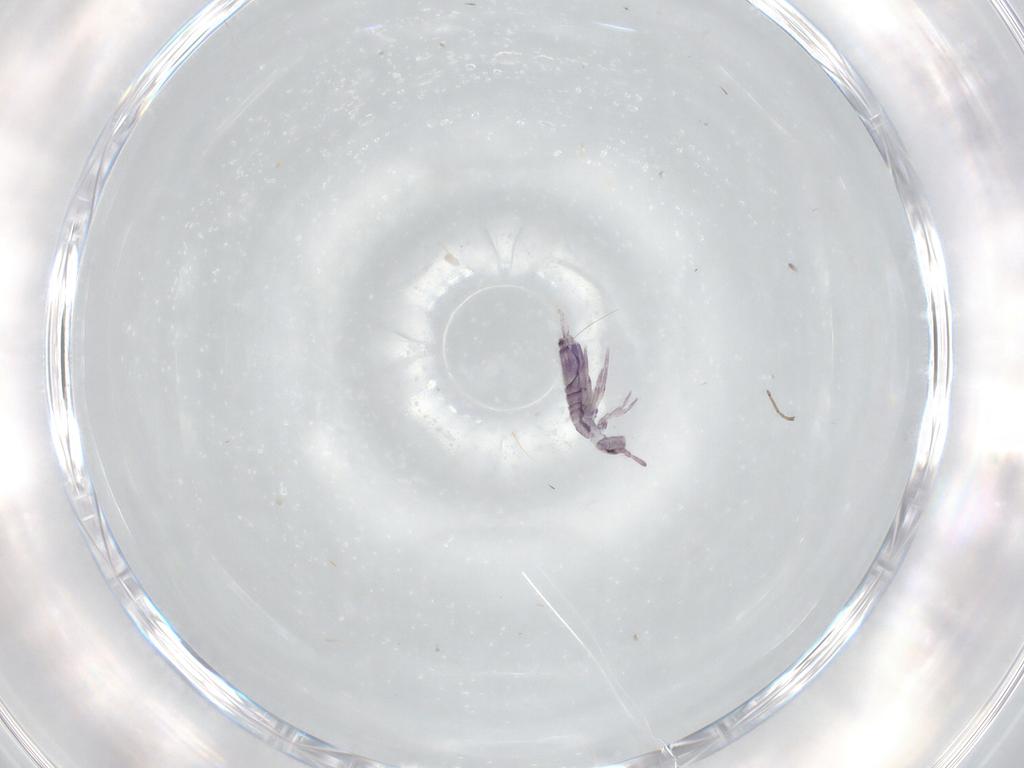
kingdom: Animalia
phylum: Arthropoda
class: Collembola
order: Entomobryomorpha
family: Entomobryidae
